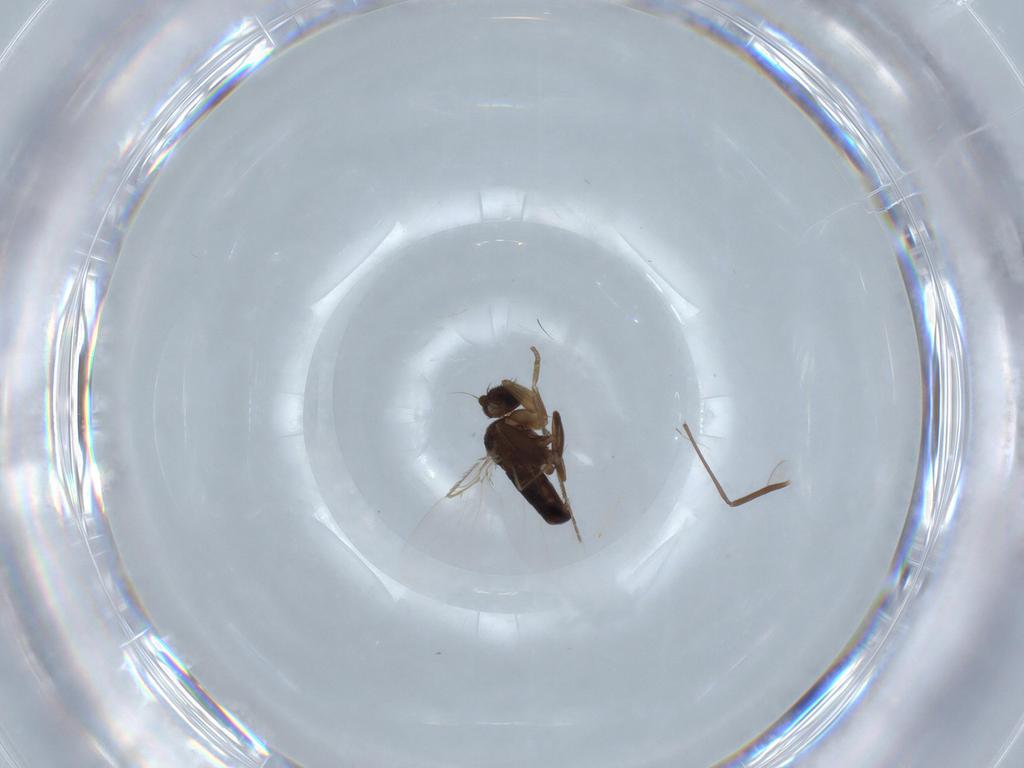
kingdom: Animalia
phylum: Arthropoda
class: Insecta
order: Diptera
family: Phoridae
